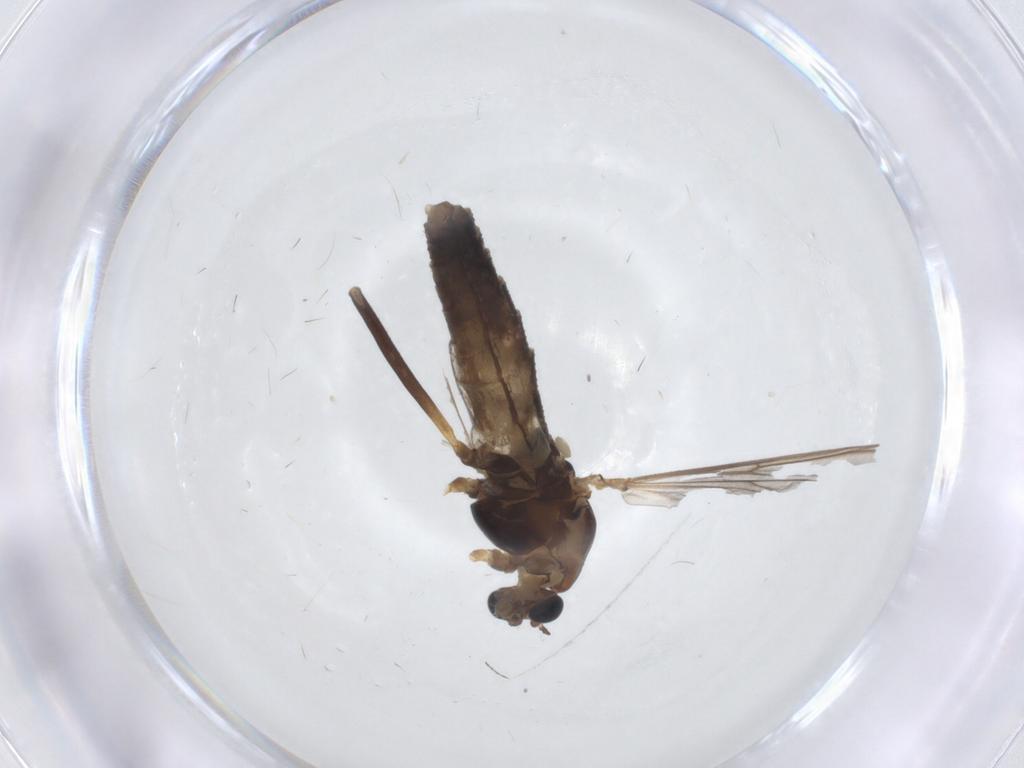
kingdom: Animalia
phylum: Arthropoda
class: Insecta
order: Diptera
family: Chironomidae
